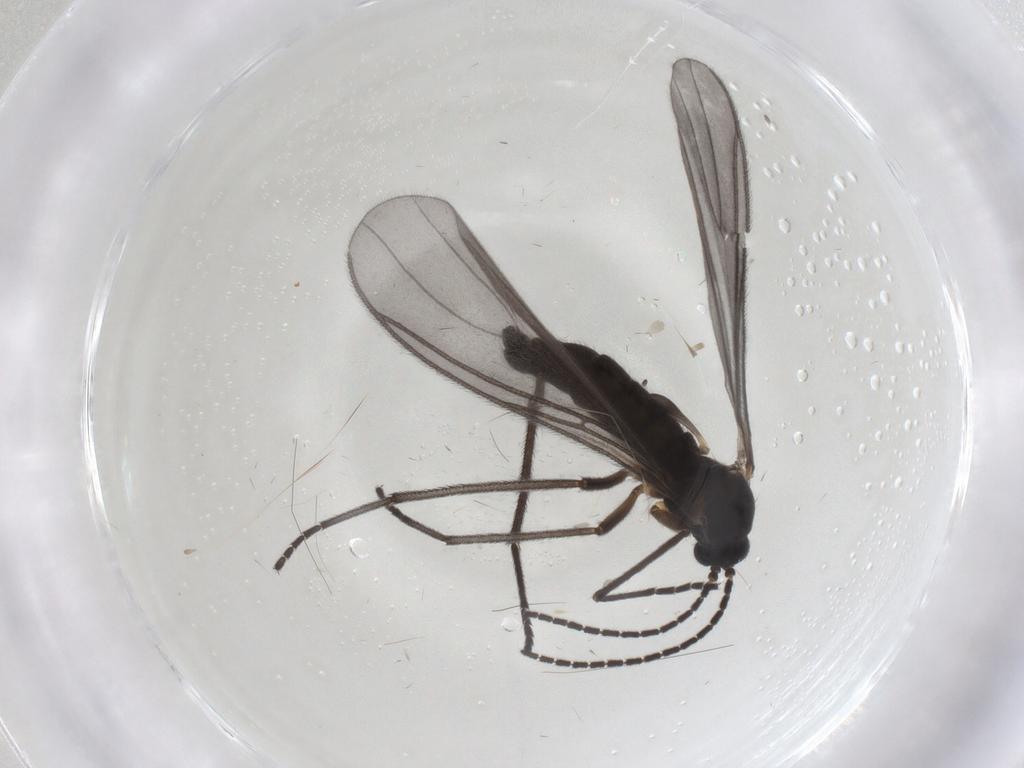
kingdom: Animalia
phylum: Arthropoda
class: Insecta
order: Diptera
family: Sciaridae
